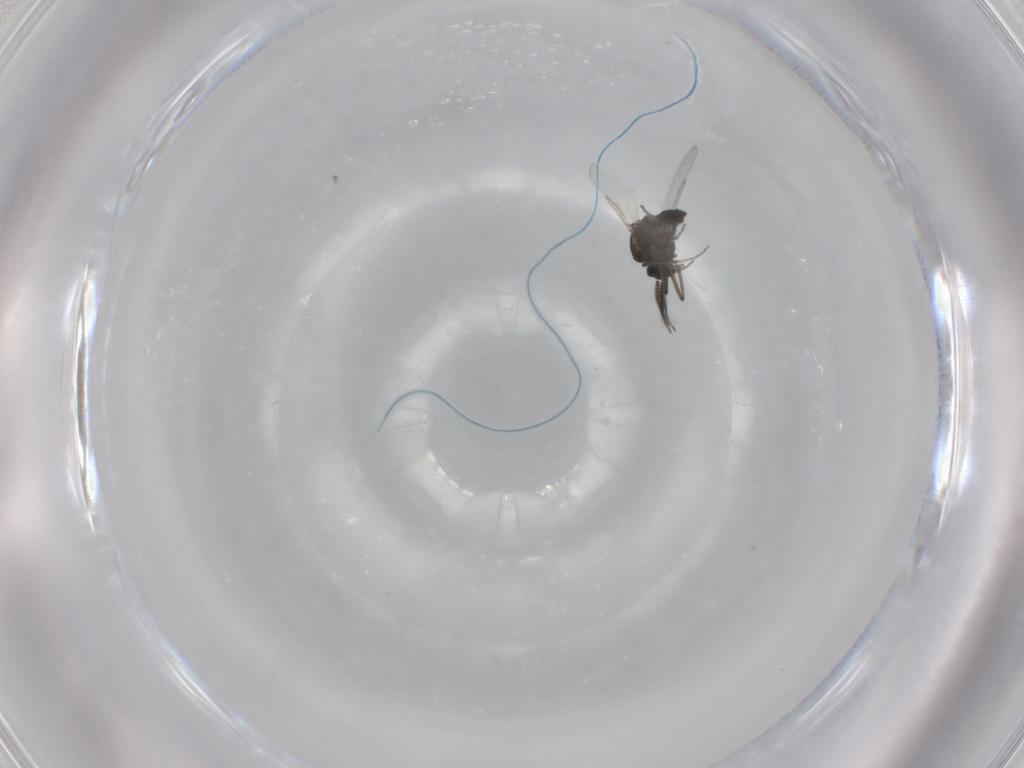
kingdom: Animalia
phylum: Arthropoda
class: Insecta
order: Diptera
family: Ceratopogonidae
